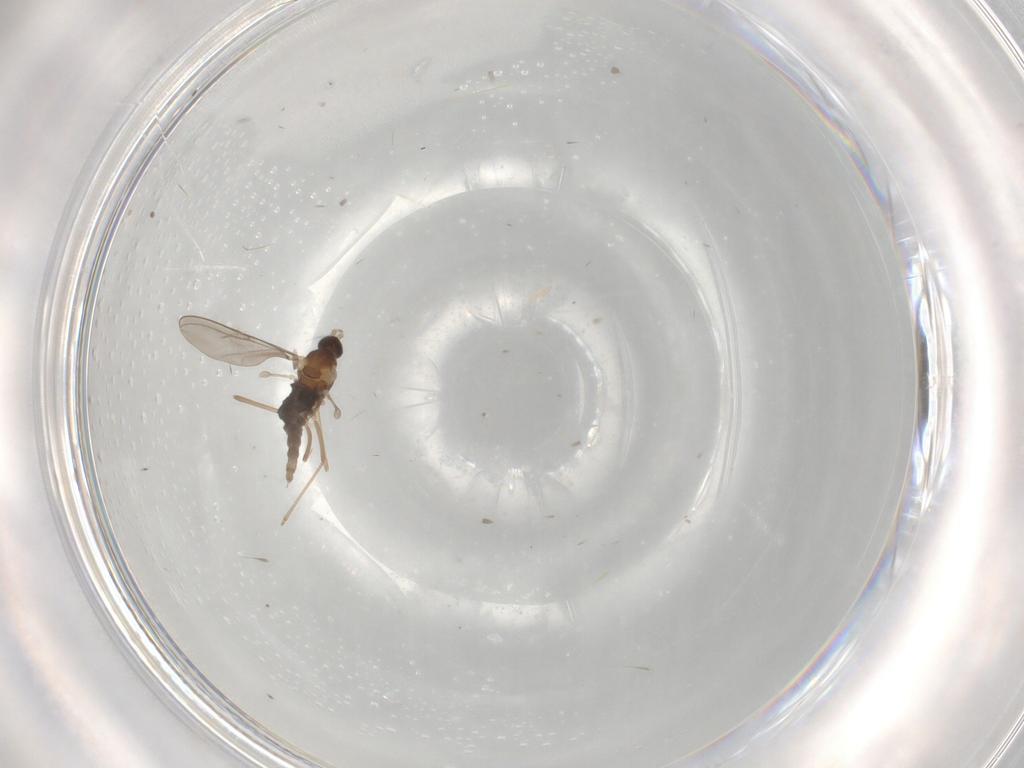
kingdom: Animalia
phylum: Arthropoda
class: Insecta
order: Diptera
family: Cecidomyiidae
